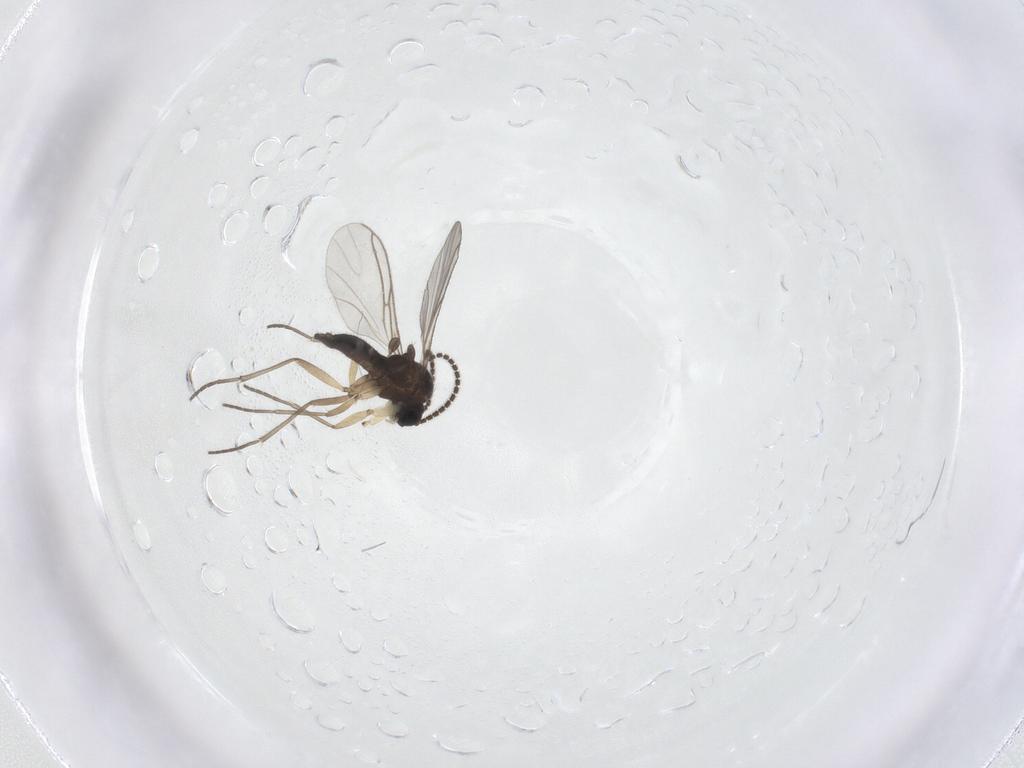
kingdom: Animalia
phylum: Arthropoda
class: Insecta
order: Diptera
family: Sciaridae
